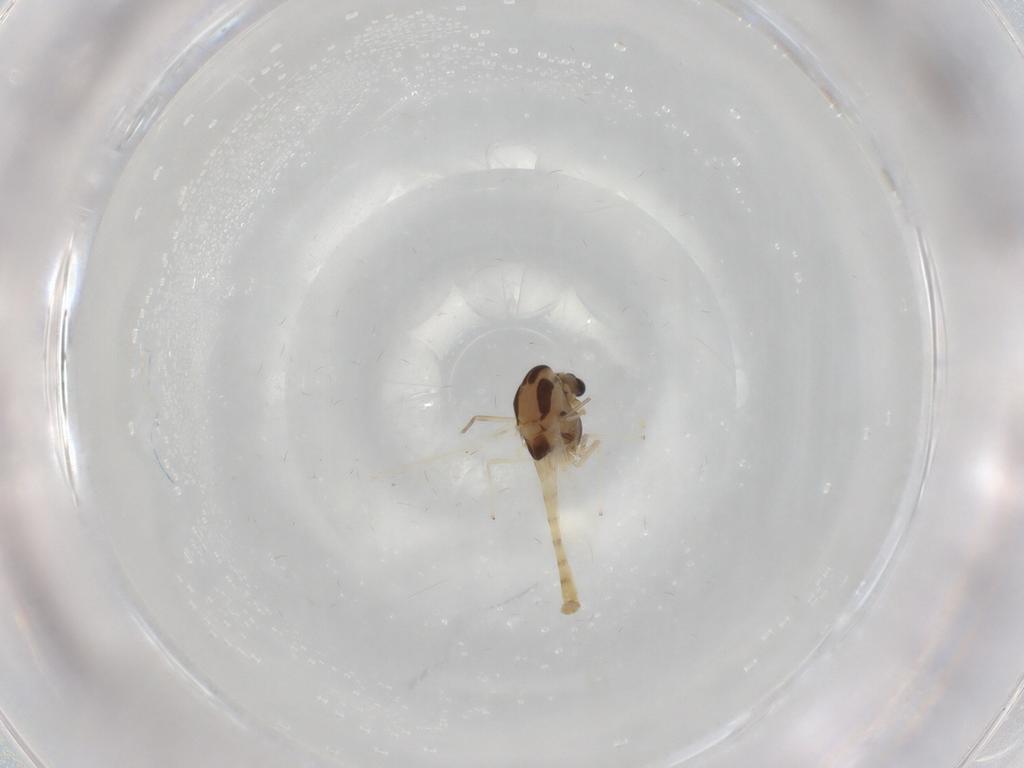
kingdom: Animalia
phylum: Arthropoda
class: Insecta
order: Diptera
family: Chironomidae
